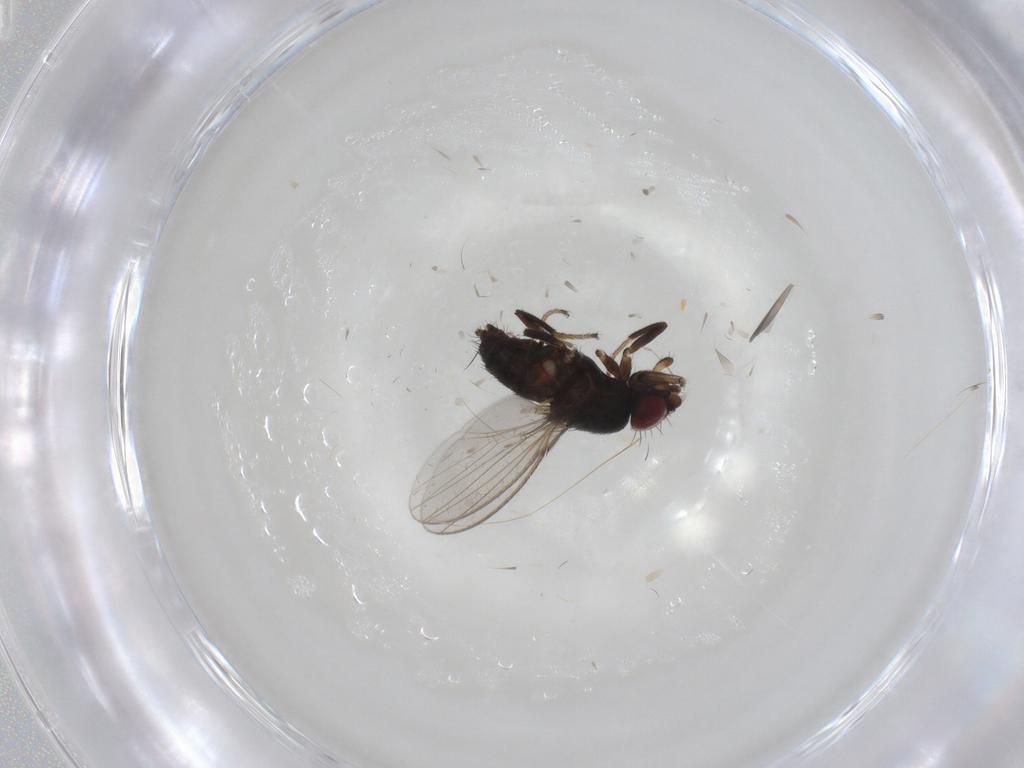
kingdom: Animalia
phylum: Arthropoda
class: Insecta
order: Diptera
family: Milichiidae
